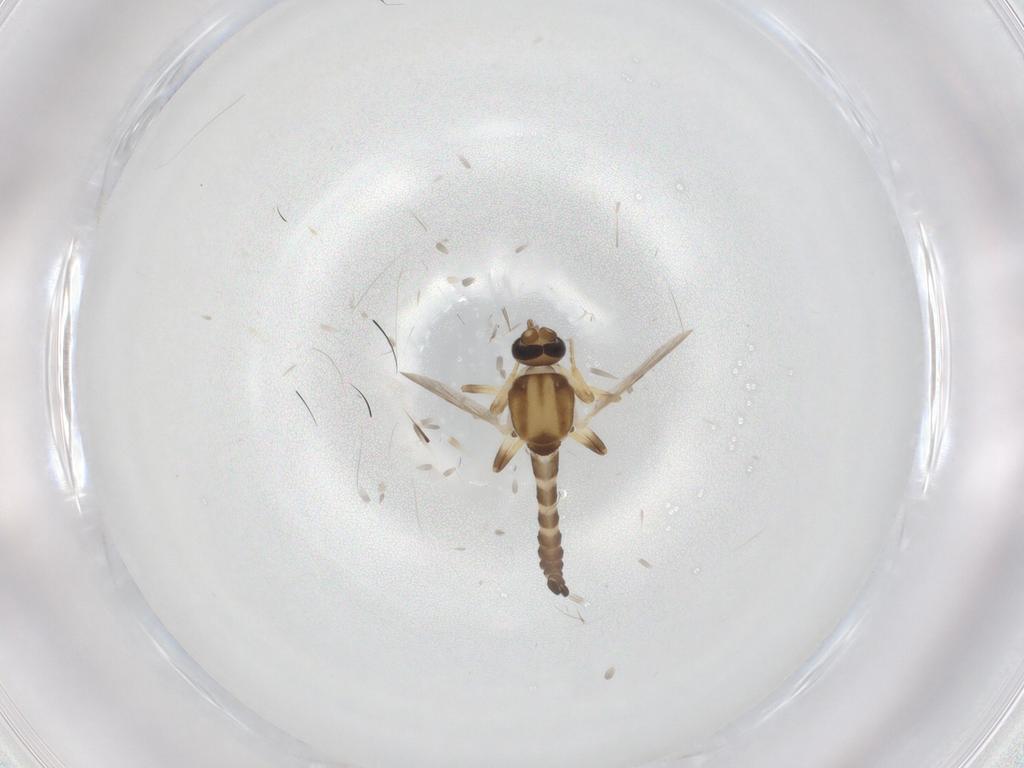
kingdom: Animalia
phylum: Arthropoda
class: Insecta
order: Diptera
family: Ceratopogonidae
